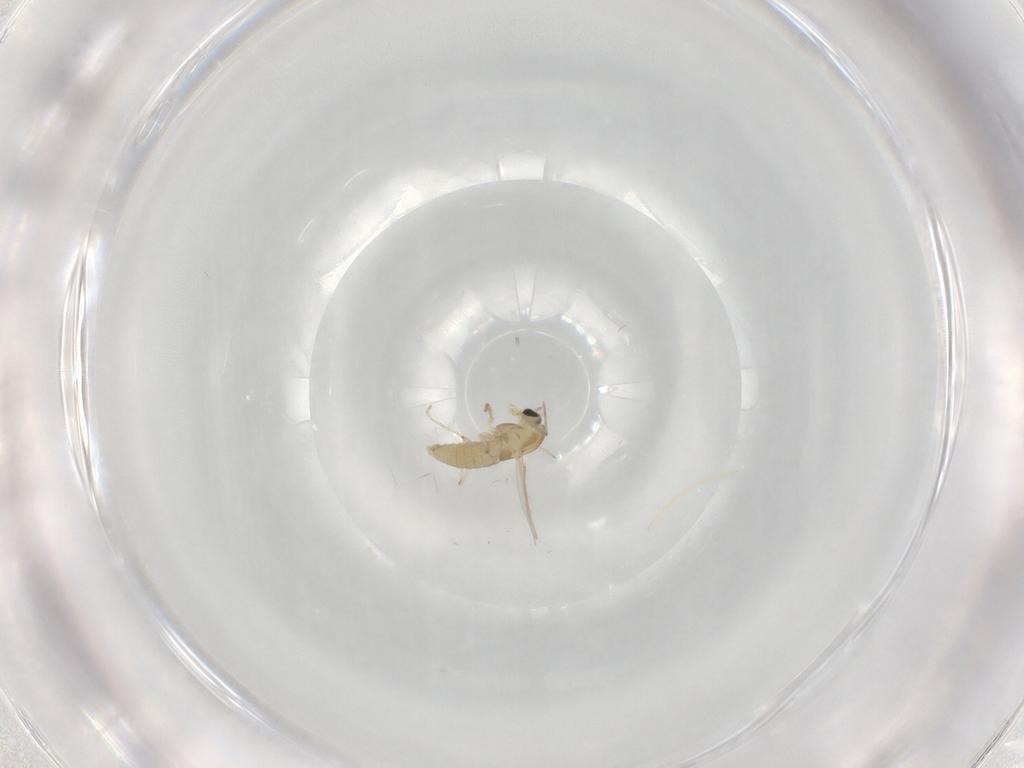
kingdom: Animalia
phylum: Arthropoda
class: Insecta
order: Diptera
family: Chironomidae
